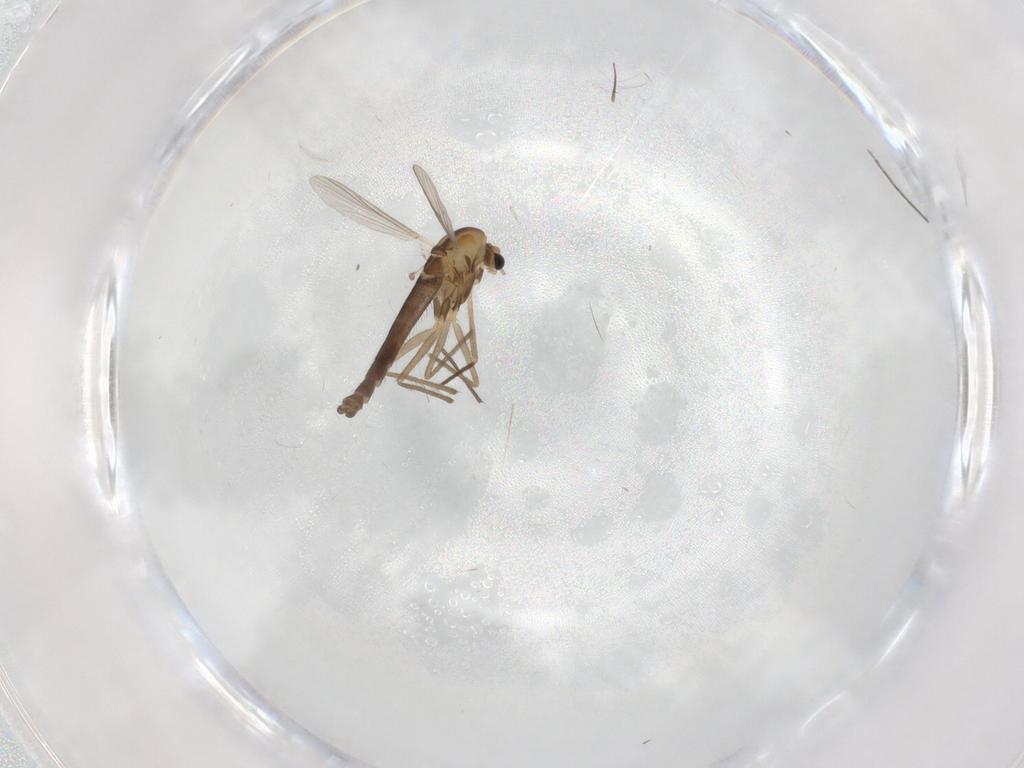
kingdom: Animalia
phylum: Arthropoda
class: Insecta
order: Diptera
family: Chironomidae
